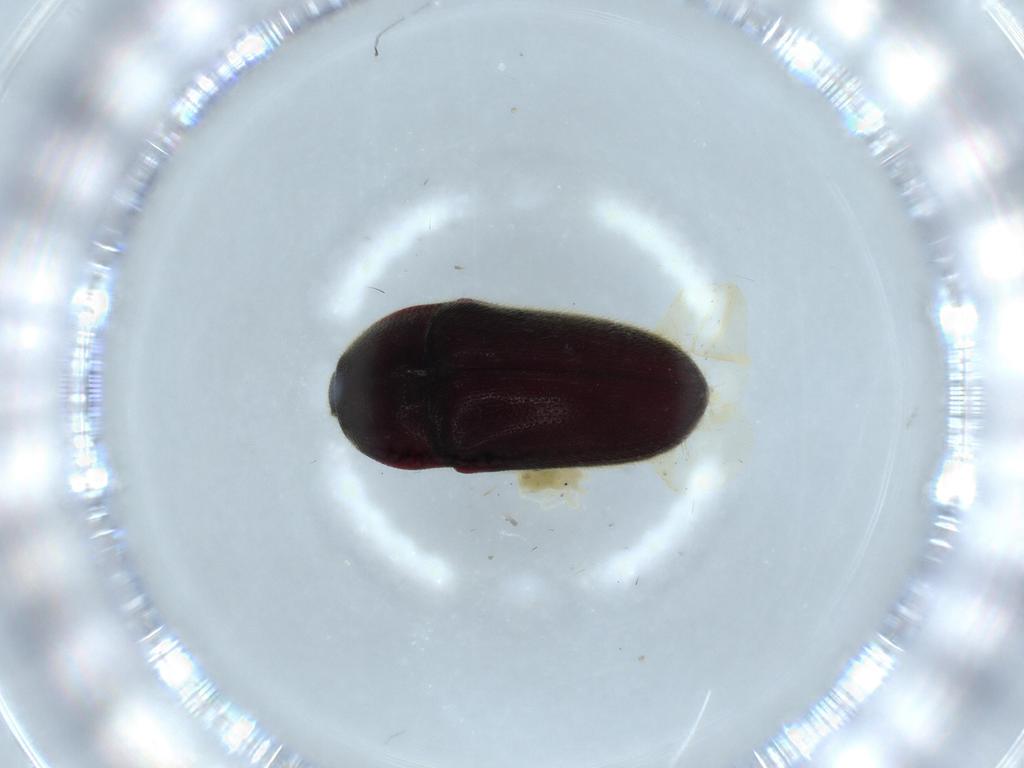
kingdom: Animalia
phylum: Arthropoda
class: Insecta
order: Coleoptera
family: Throscidae
